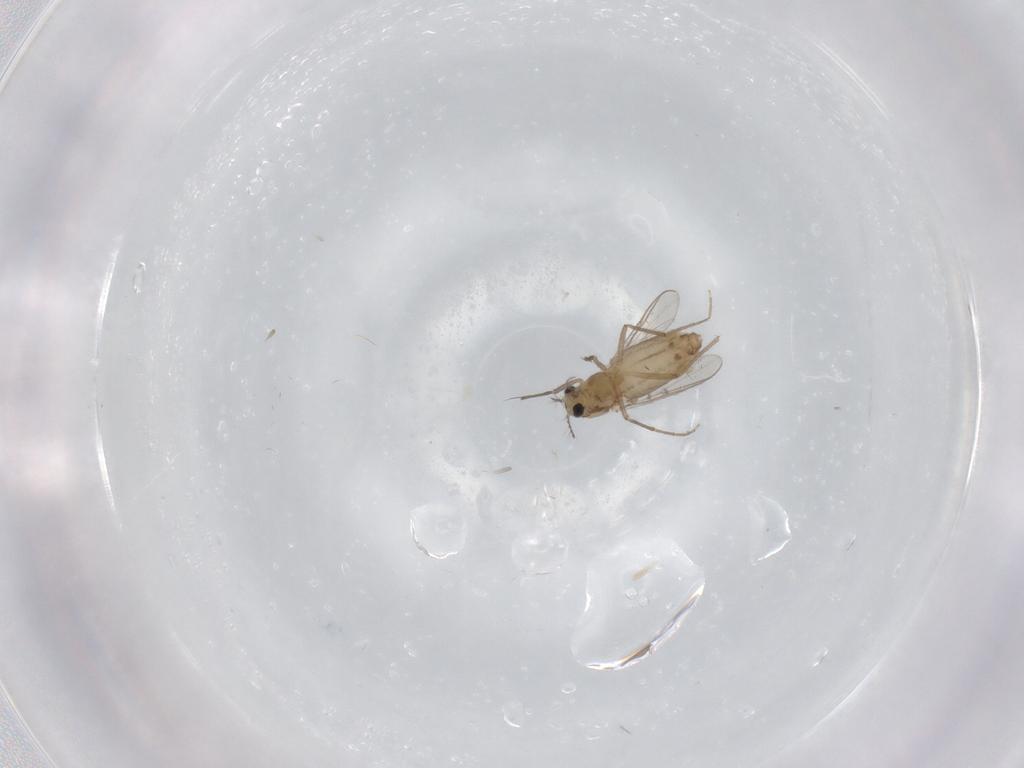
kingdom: Animalia
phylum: Arthropoda
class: Insecta
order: Diptera
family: Chironomidae
